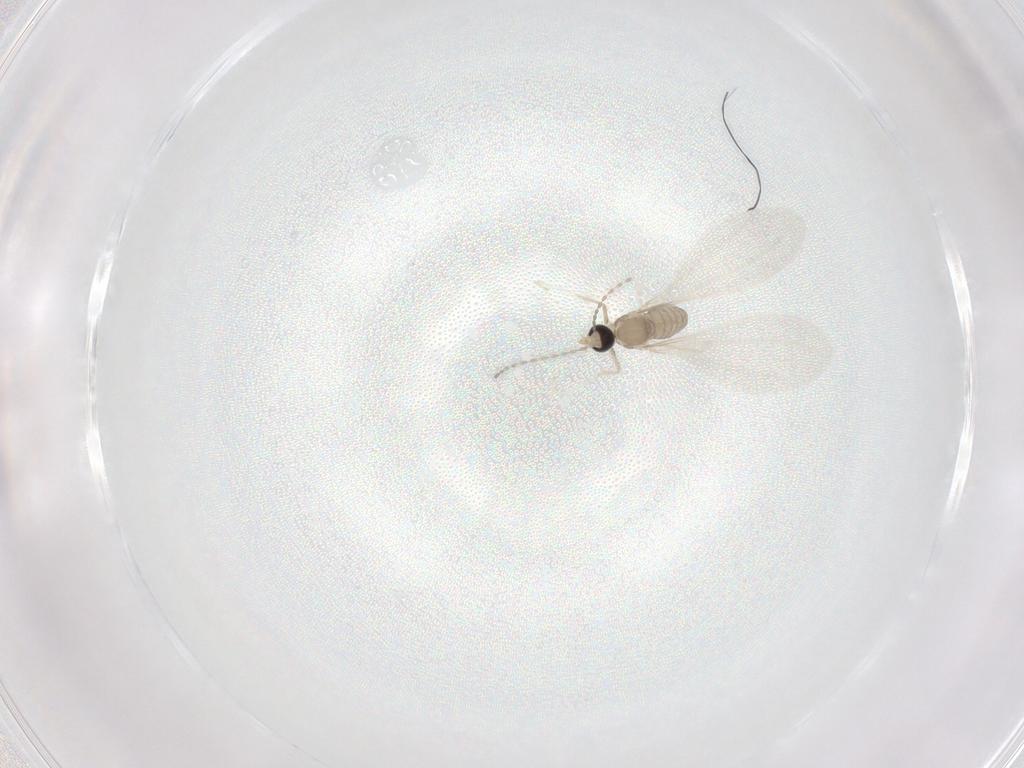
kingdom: Animalia
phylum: Arthropoda
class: Insecta
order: Diptera
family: Cecidomyiidae
